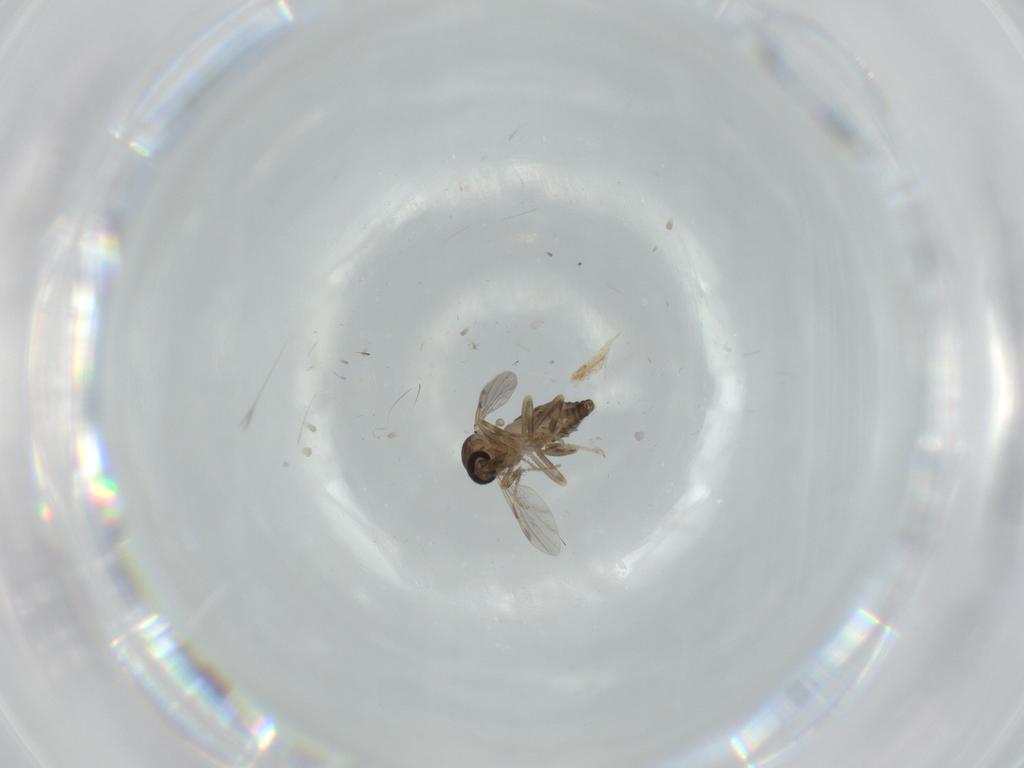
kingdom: Animalia
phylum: Arthropoda
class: Insecta
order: Diptera
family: Ceratopogonidae
